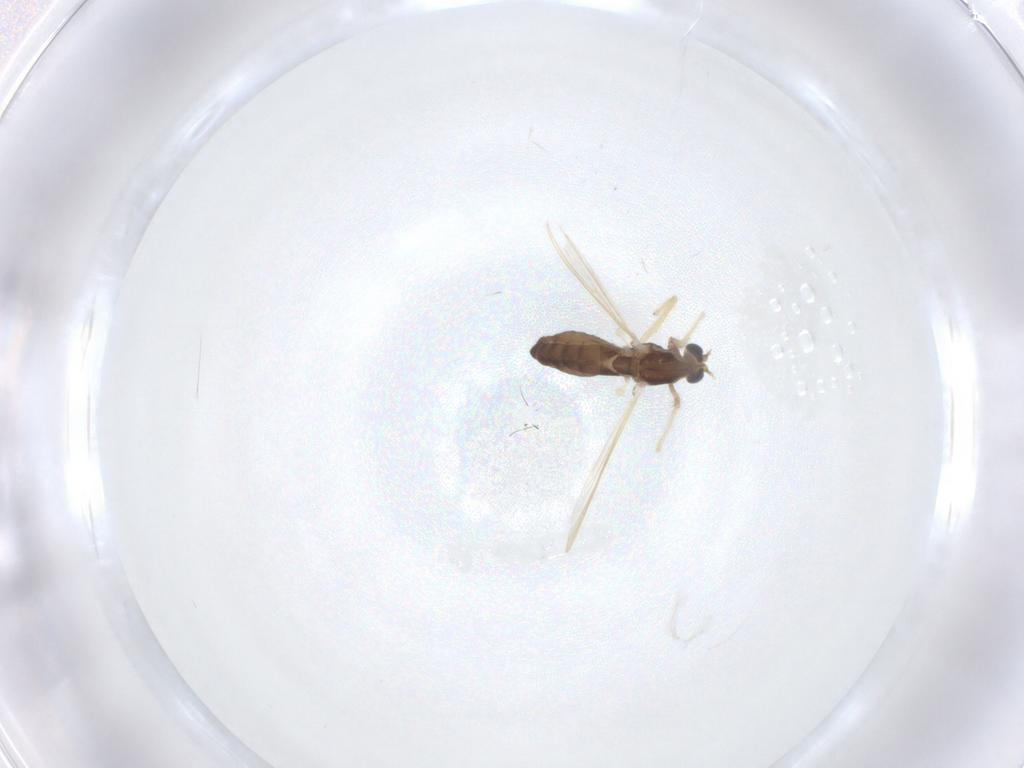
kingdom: Animalia
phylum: Arthropoda
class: Insecta
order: Diptera
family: Chironomidae
